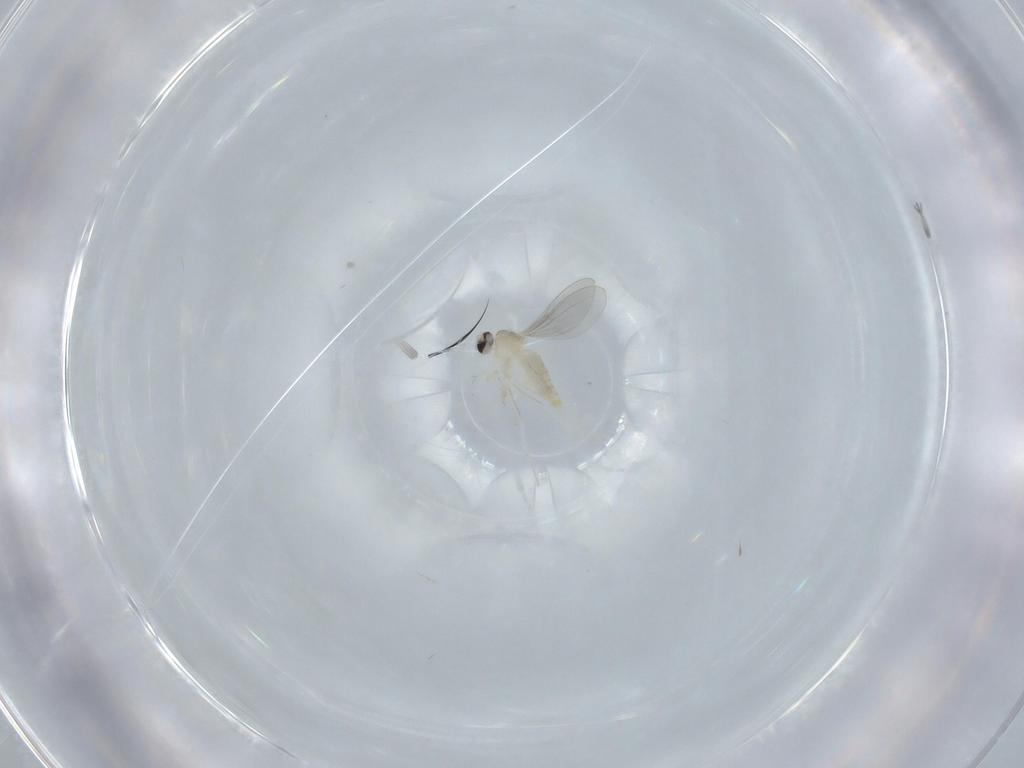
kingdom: Animalia
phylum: Arthropoda
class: Insecta
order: Diptera
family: Cecidomyiidae
